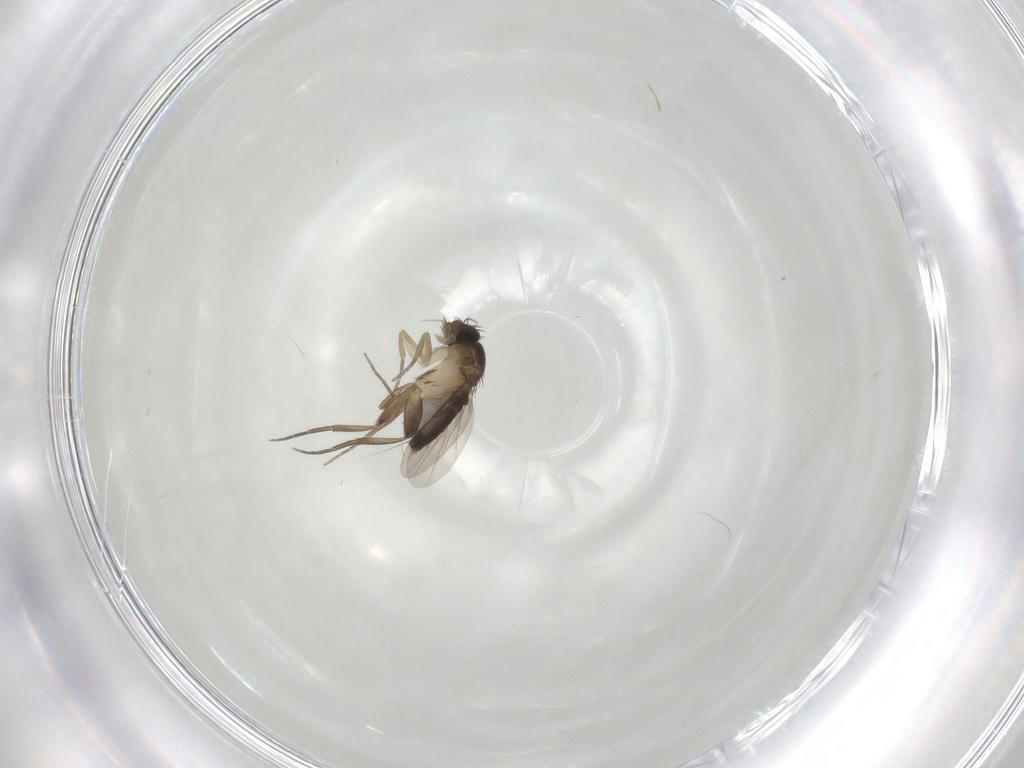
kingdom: Animalia
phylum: Arthropoda
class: Insecta
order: Diptera
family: Phoridae
